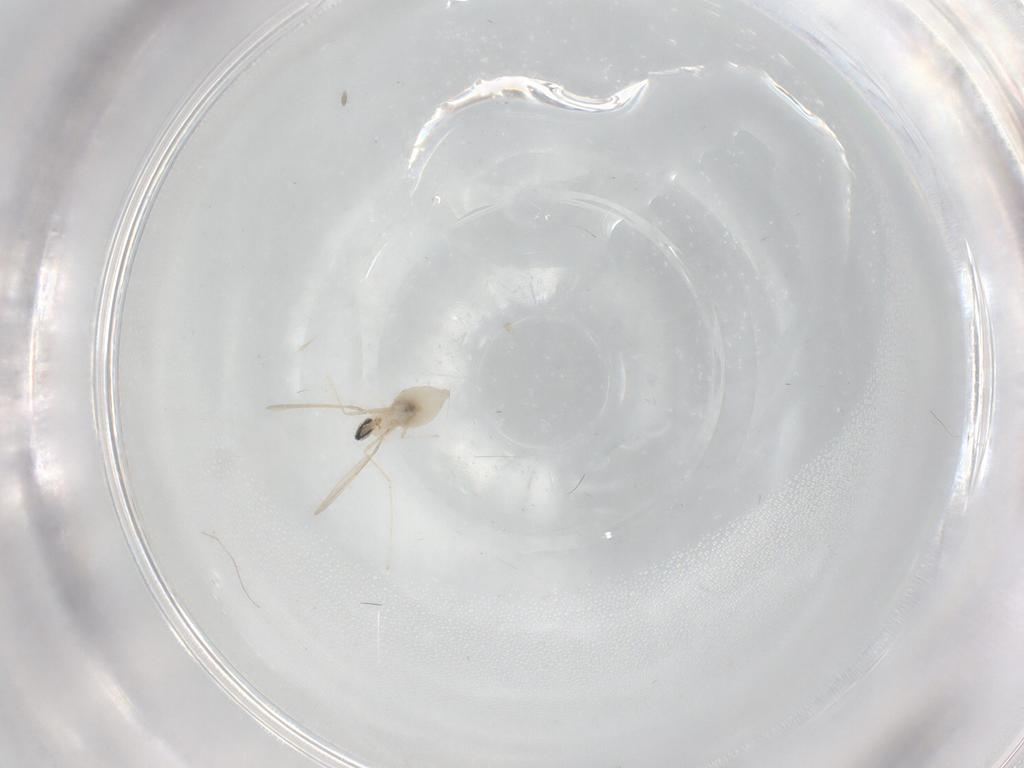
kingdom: Animalia
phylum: Arthropoda
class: Insecta
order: Diptera
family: Cecidomyiidae
